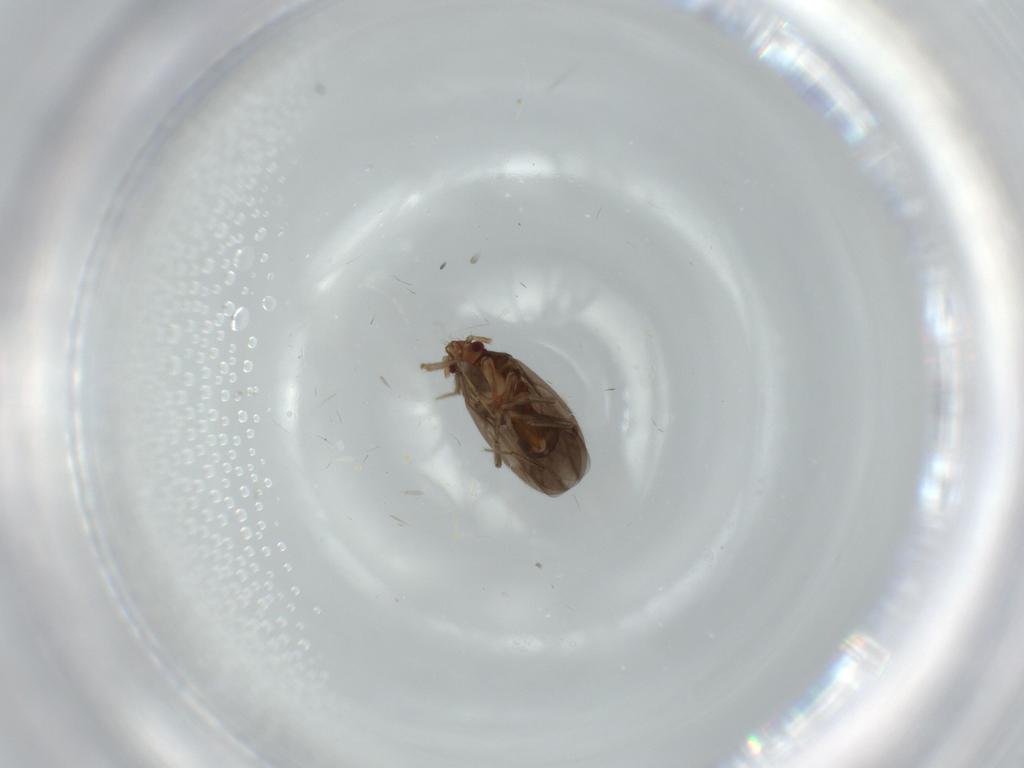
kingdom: Animalia
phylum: Arthropoda
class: Insecta
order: Hemiptera
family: Ceratocombidae
